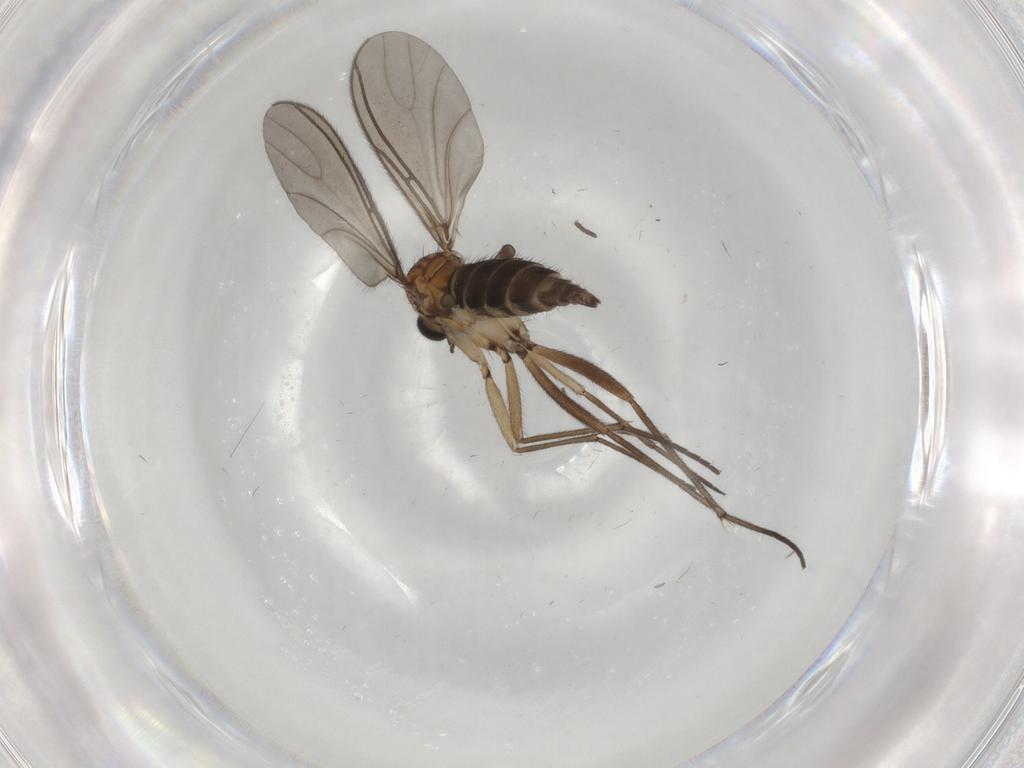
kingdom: Animalia
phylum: Arthropoda
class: Insecta
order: Diptera
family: Sciaridae
